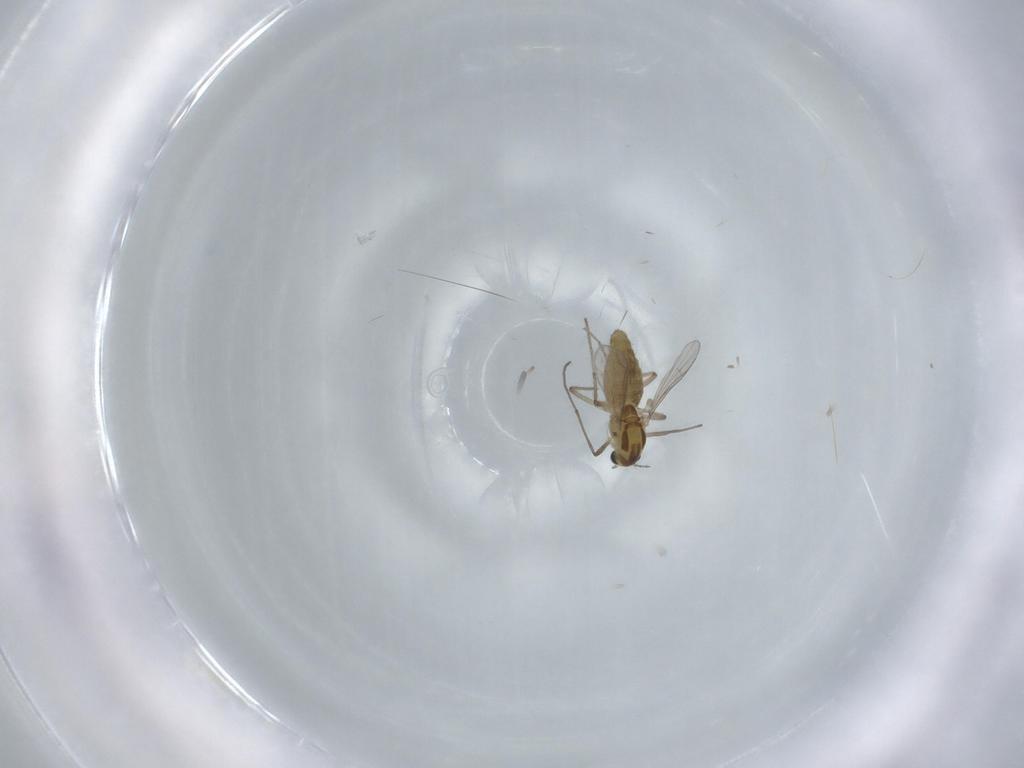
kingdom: Animalia
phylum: Arthropoda
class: Insecta
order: Diptera
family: Chironomidae
